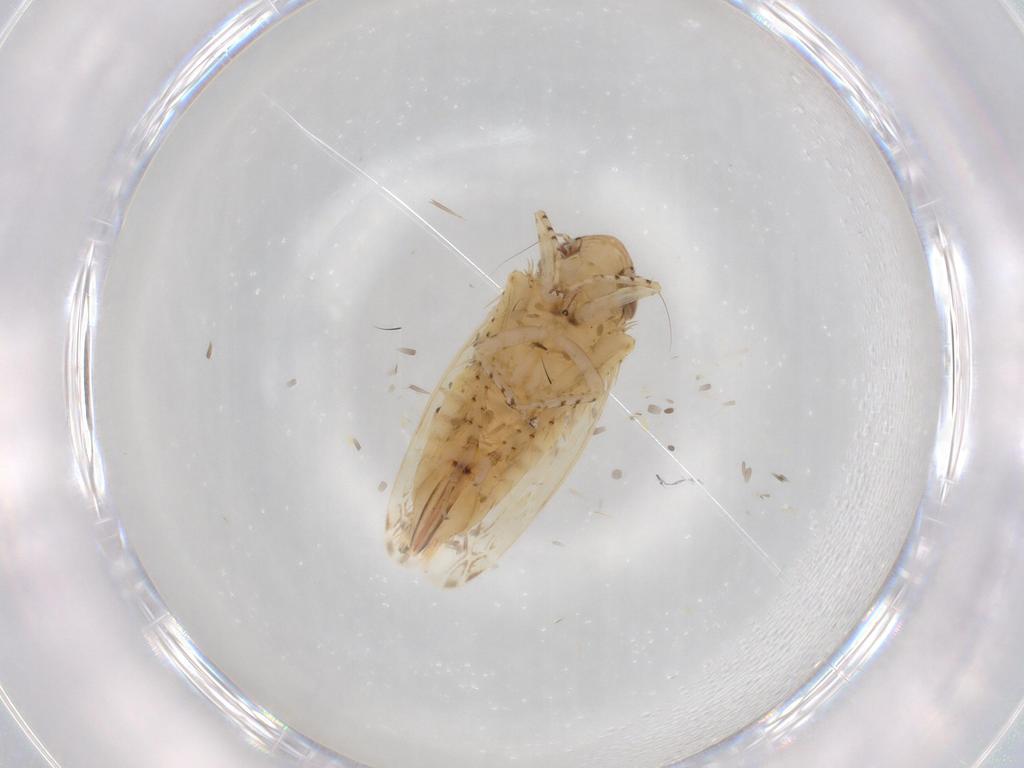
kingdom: Animalia
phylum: Arthropoda
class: Insecta
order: Hemiptera
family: Cicadellidae
